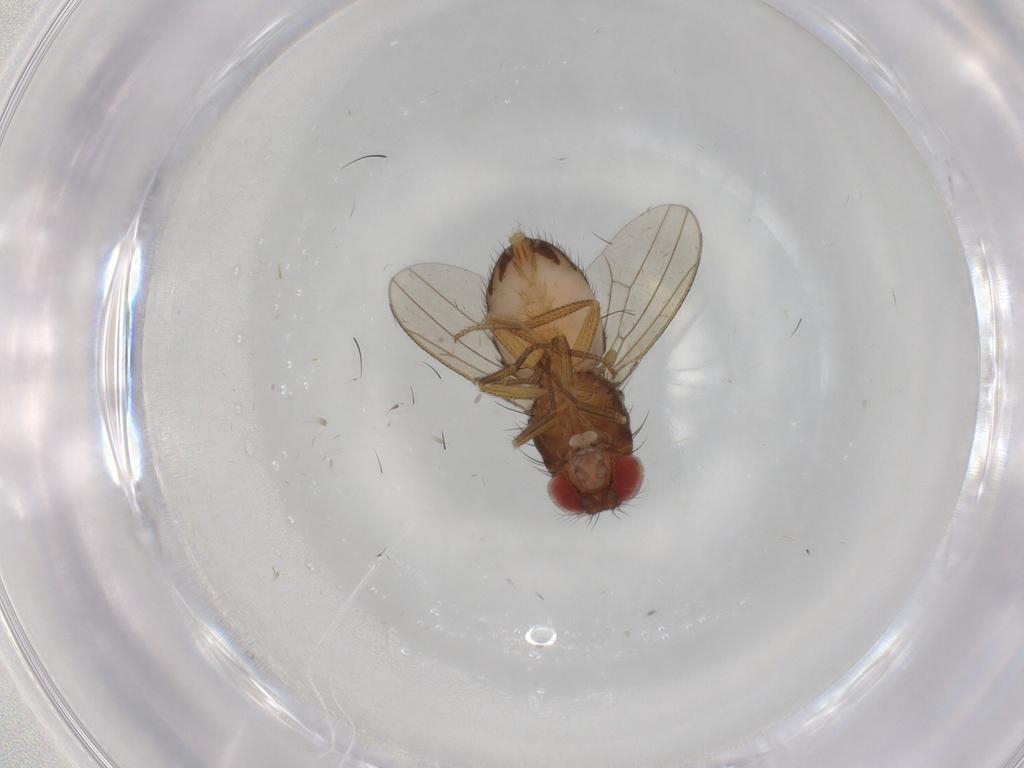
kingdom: Animalia
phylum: Arthropoda
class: Insecta
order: Diptera
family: Drosophilidae
